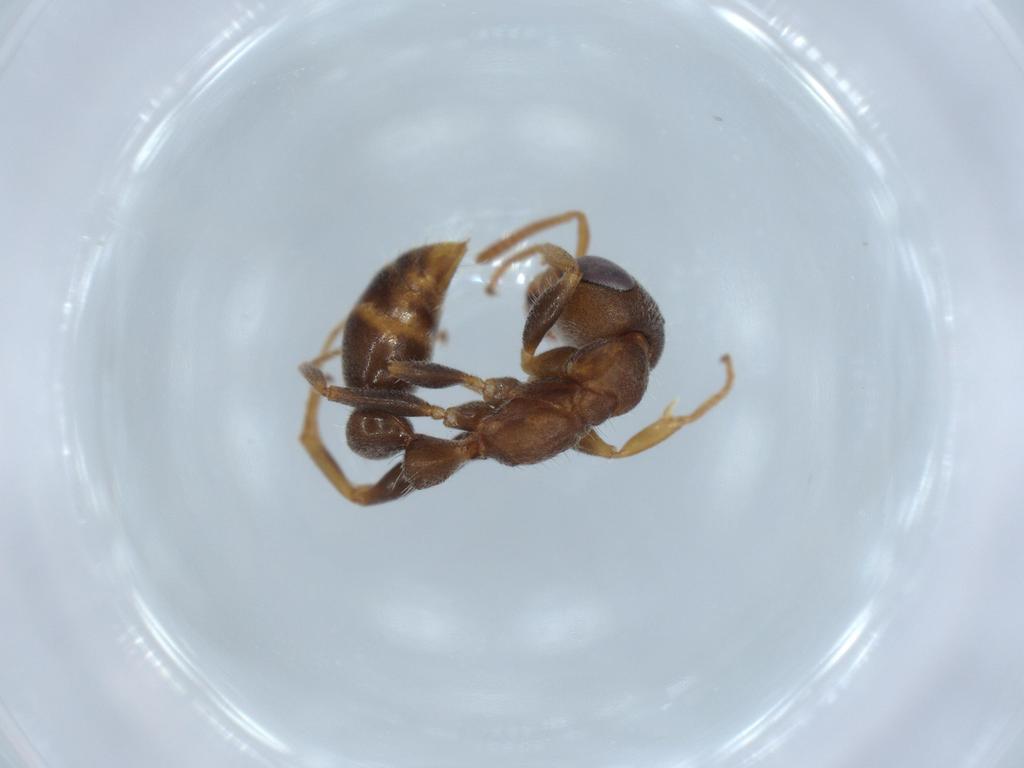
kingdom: Animalia
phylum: Arthropoda
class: Insecta
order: Hymenoptera
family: Formicidae
